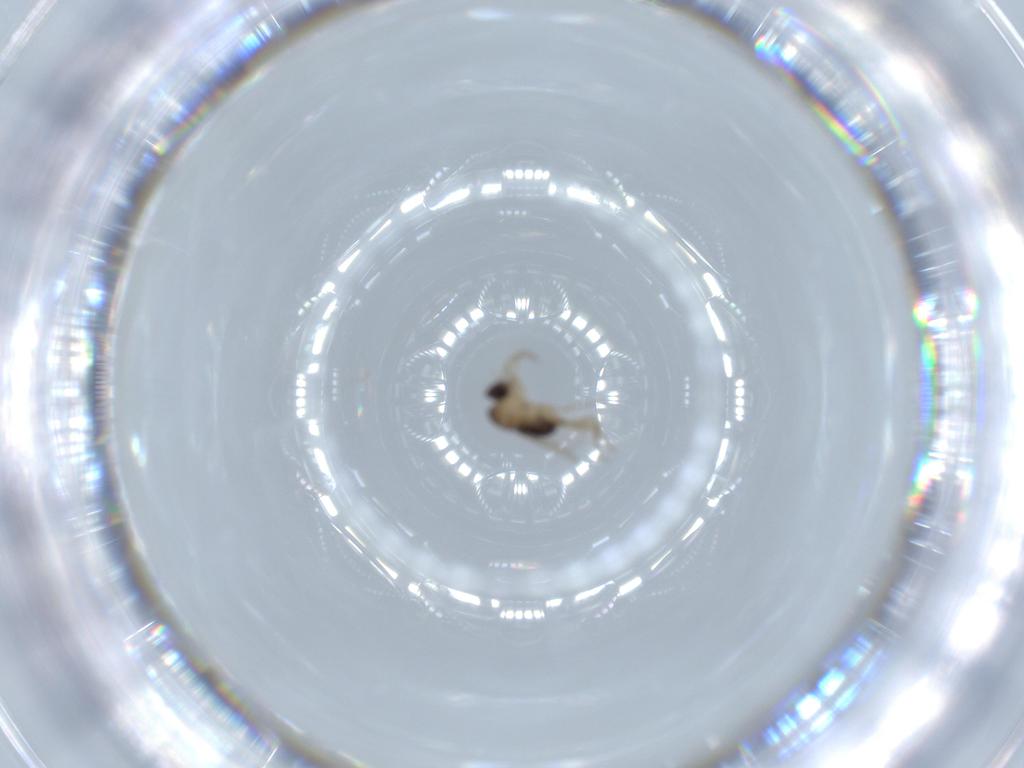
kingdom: Animalia
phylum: Arthropoda
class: Insecta
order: Diptera
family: Phoridae
